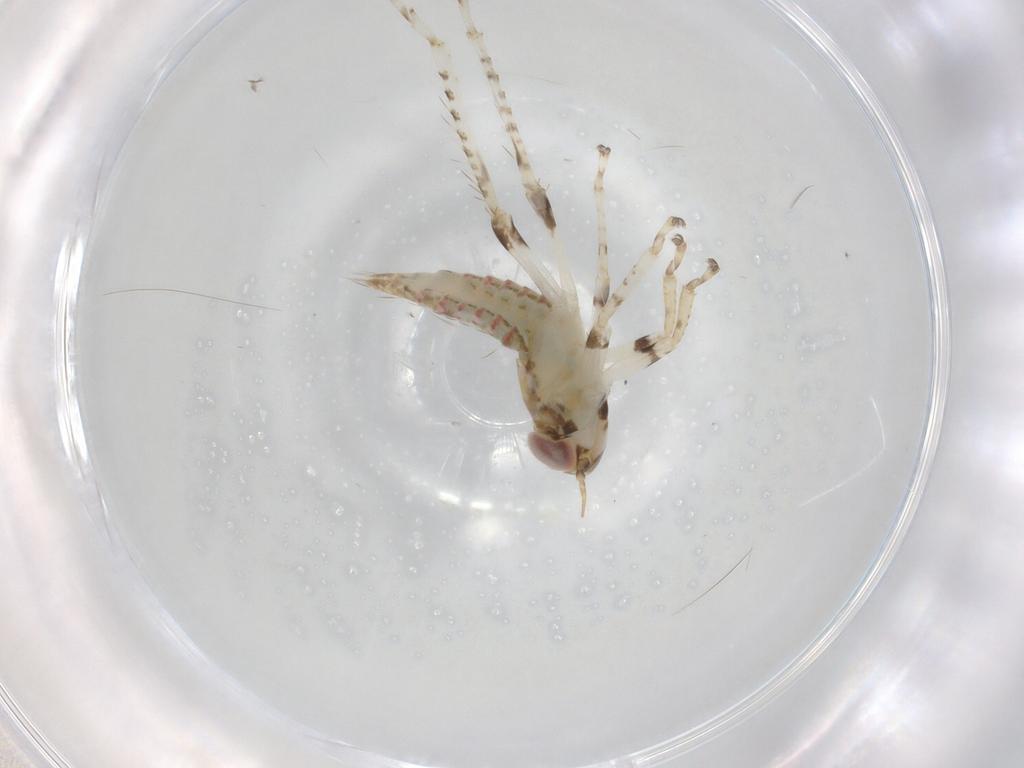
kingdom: Animalia
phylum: Arthropoda
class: Insecta
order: Hemiptera
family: Cicadellidae
